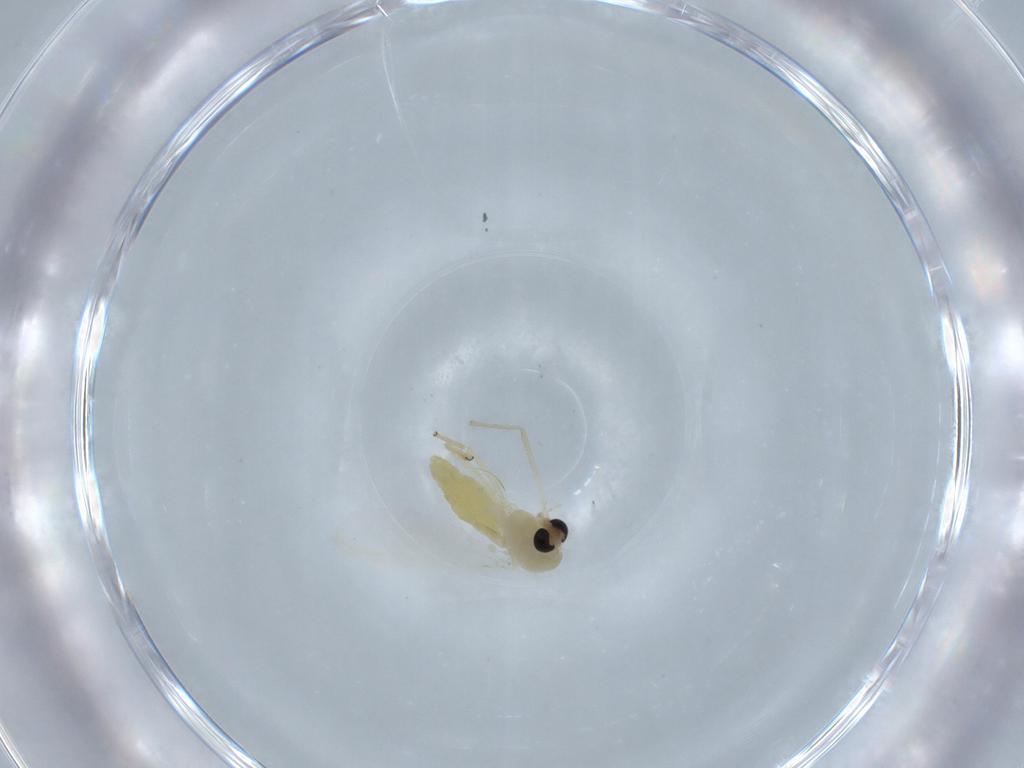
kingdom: Animalia
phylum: Arthropoda
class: Insecta
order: Diptera
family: Chironomidae
